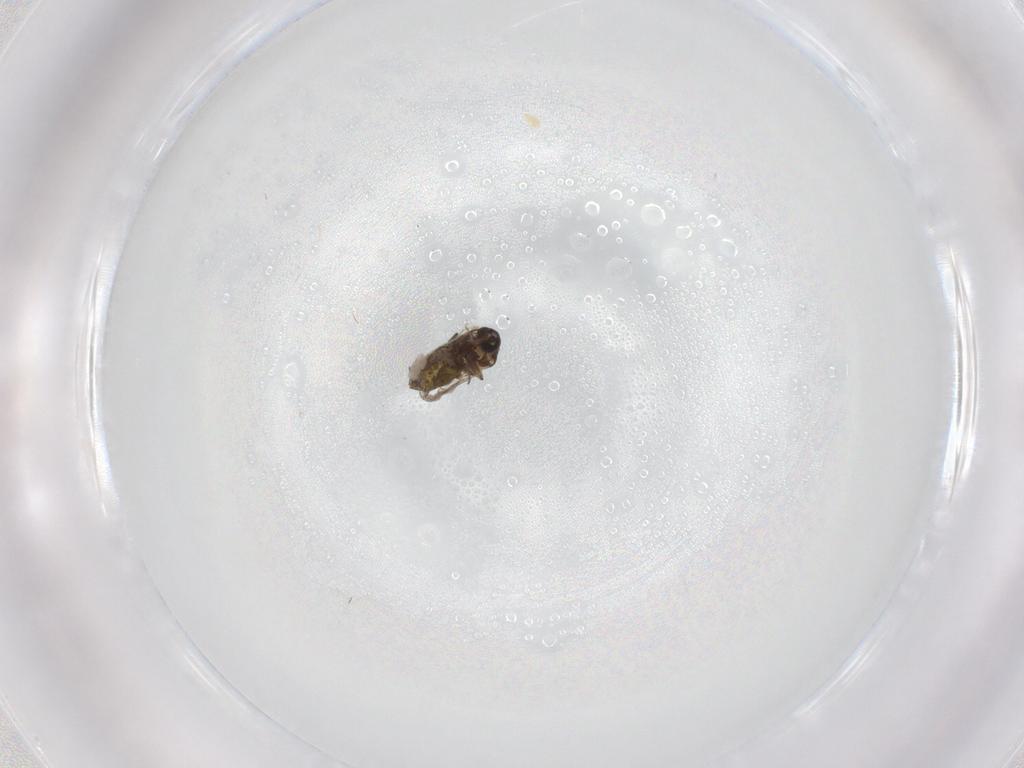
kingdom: Animalia
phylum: Arthropoda
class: Insecta
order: Diptera
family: Sciaridae
